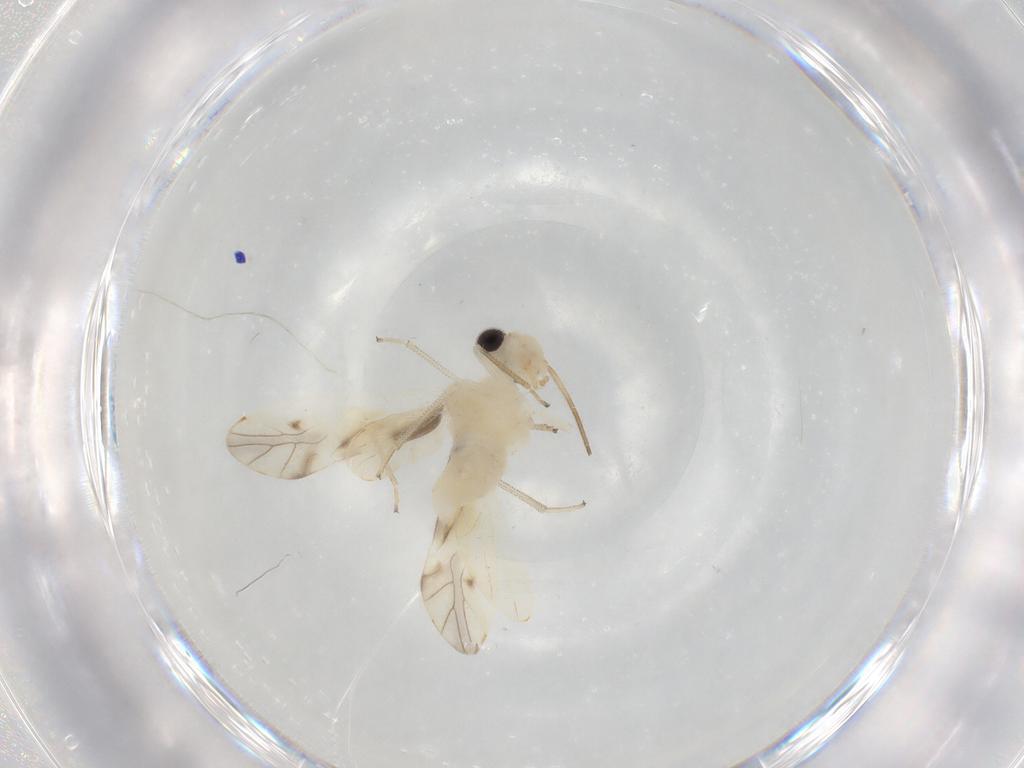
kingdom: Animalia
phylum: Arthropoda
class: Insecta
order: Psocodea
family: Caeciliusidae
